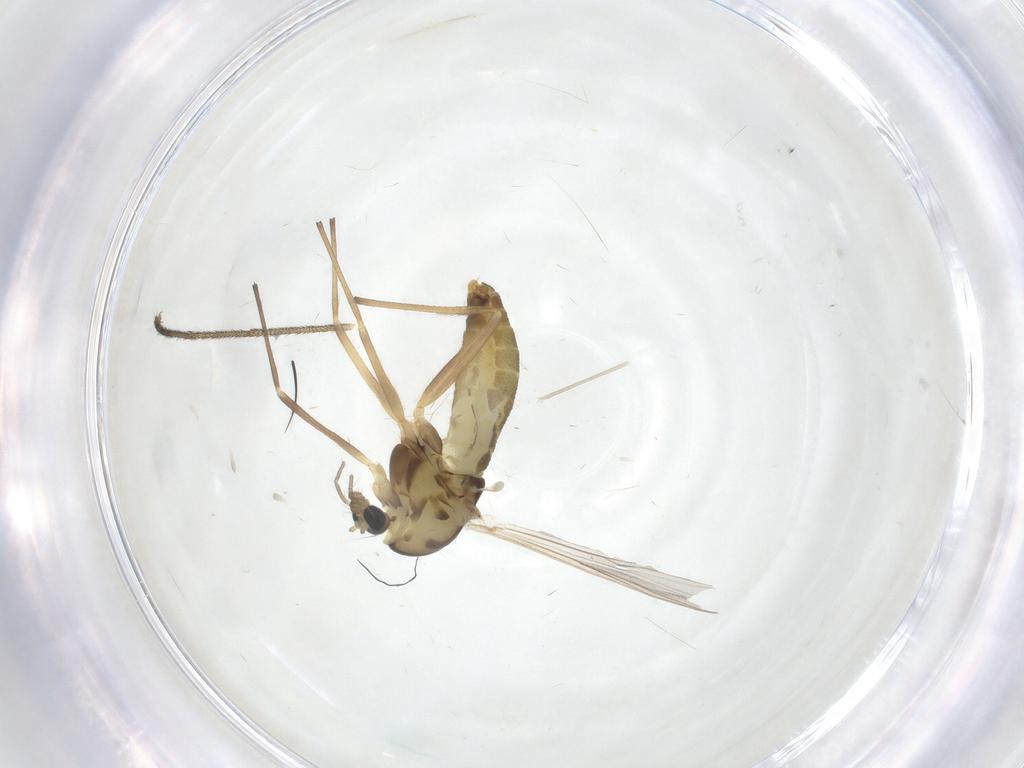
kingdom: Animalia
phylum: Arthropoda
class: Insecta
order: Diptera
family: Chironomidae
